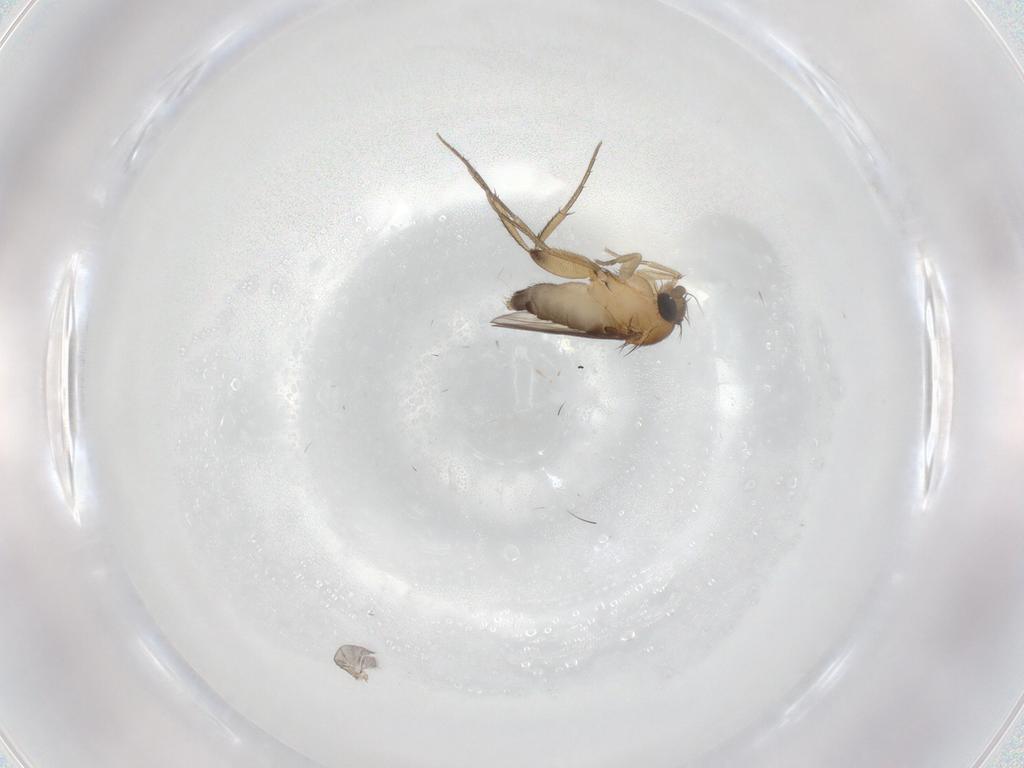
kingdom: Animalia
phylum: Arthropoda
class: Insecta
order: Diptera
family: Phoridae
